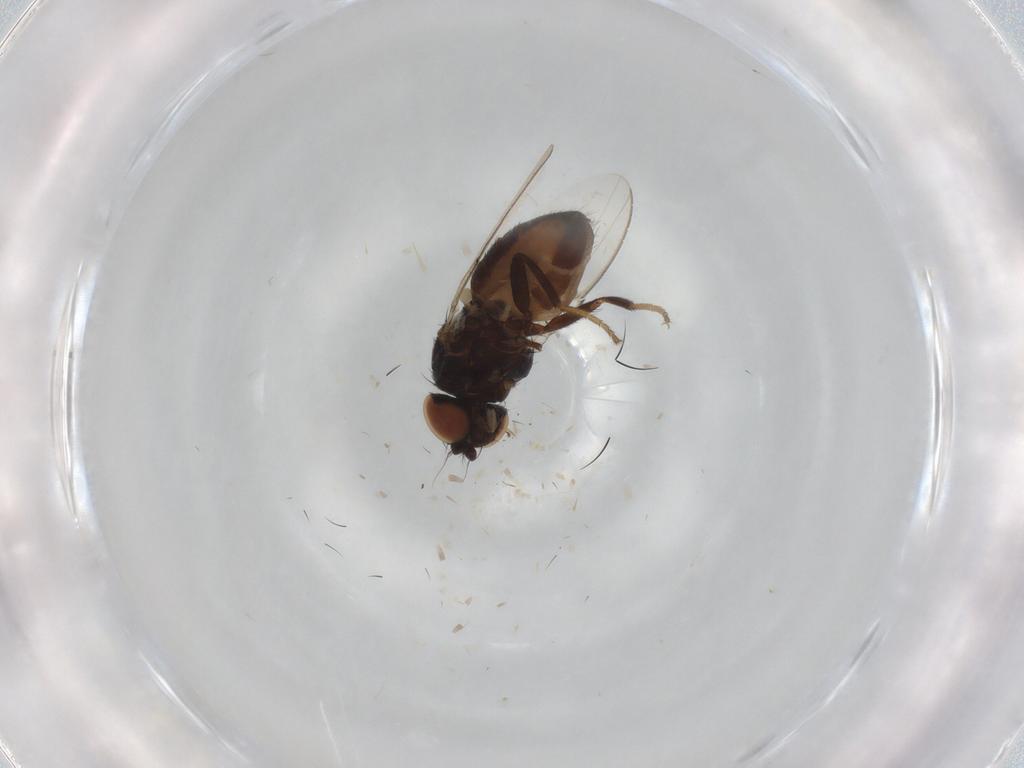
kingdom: Animalia
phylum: Arthropoda
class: Insecta
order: Diptera
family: Milichiidae
